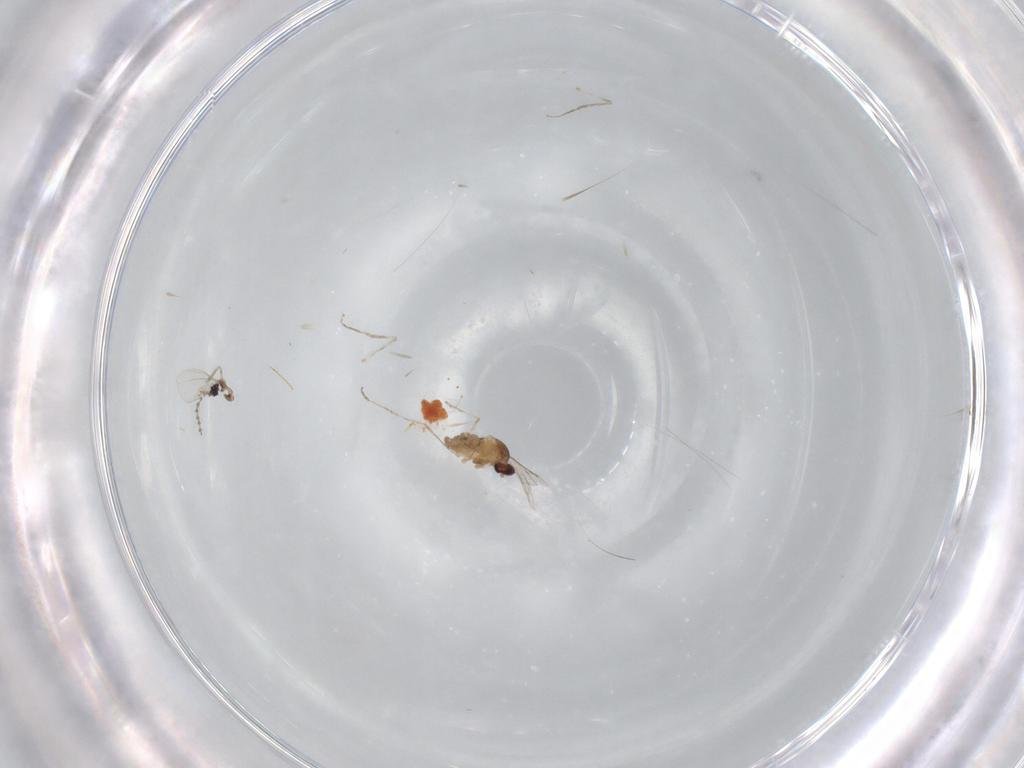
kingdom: Animalia
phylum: Arthropoda
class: Insecta
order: Diptera
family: Cecidomyiidae
